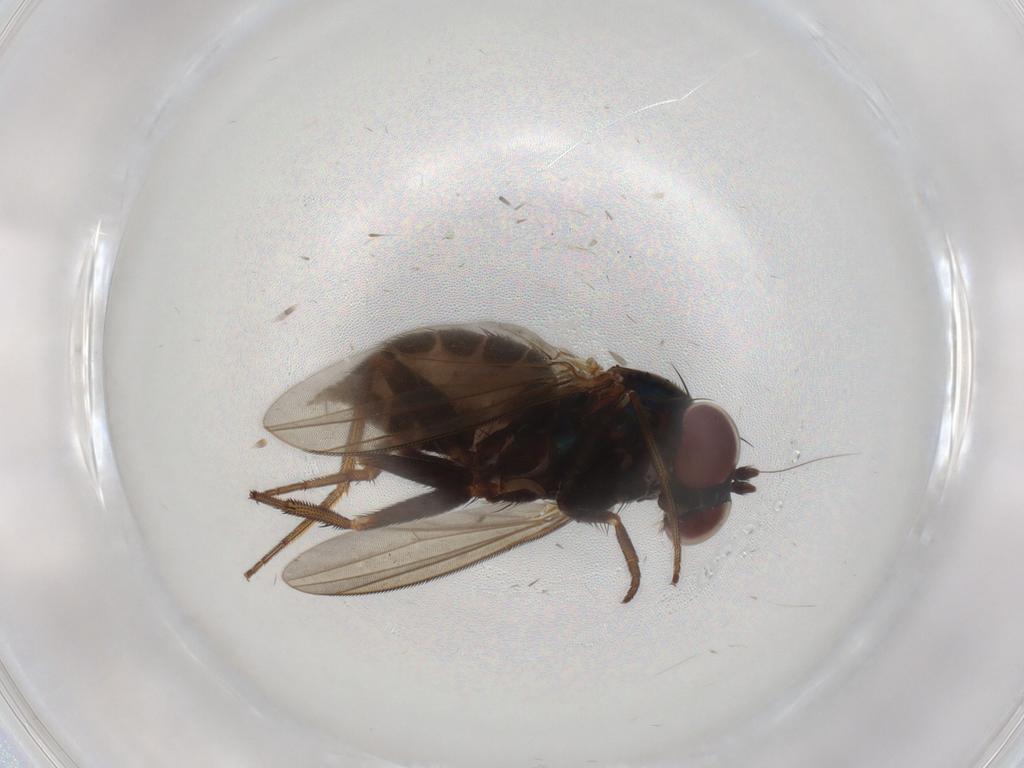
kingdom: Animalia
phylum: Arthropoda
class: Insecta
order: Diptera
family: Dolichopodidae
